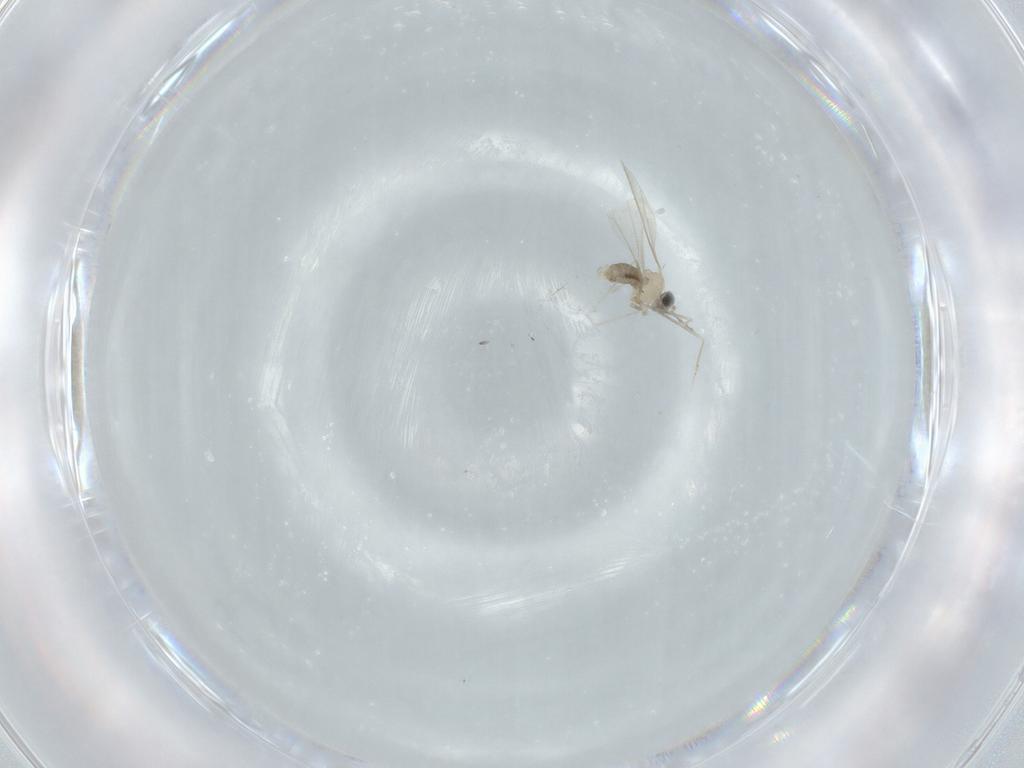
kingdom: Animalia
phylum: Arthropoda
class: Insecta
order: Diptera
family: Cecidomyiidae
